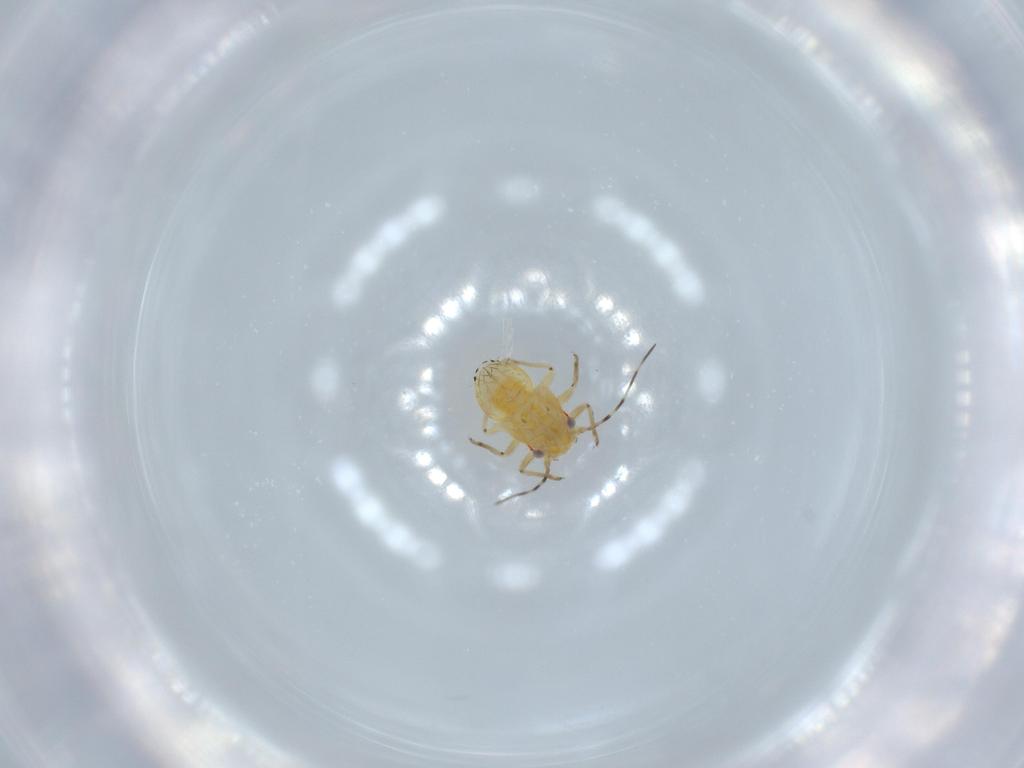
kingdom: Animalia
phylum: Arthropoda
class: Insecta
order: Hemiptera
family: Psyllidae
